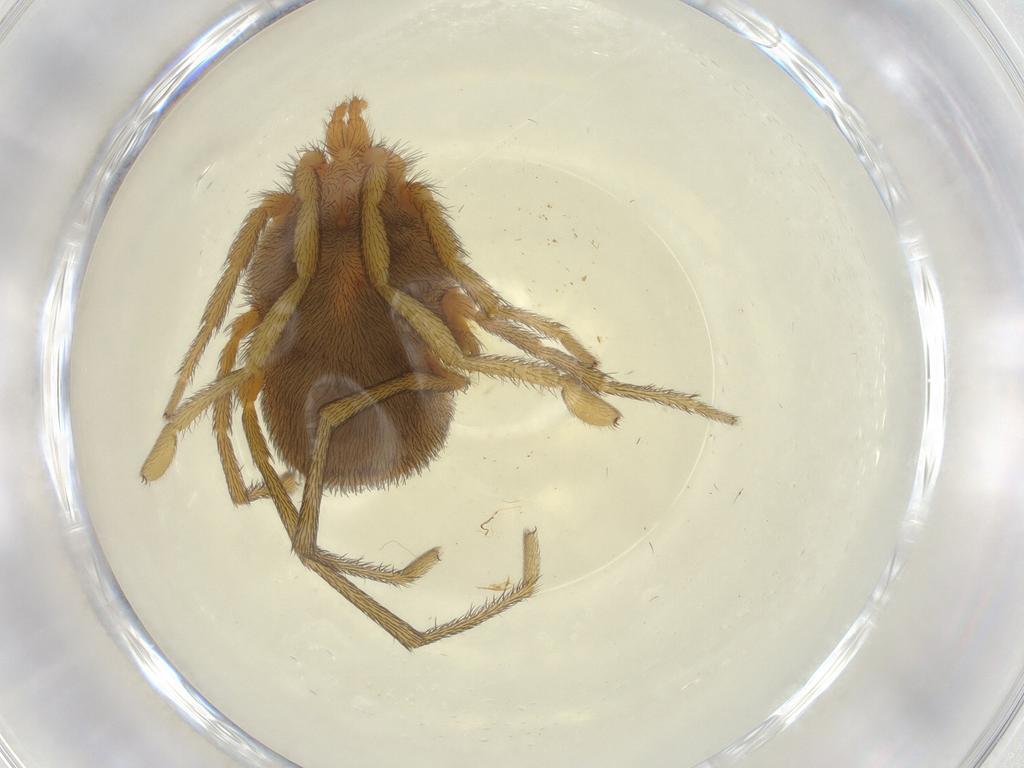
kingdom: Animalia
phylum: Arthropoda
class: Arachnida
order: Trombidiformes
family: Erythraeidae
